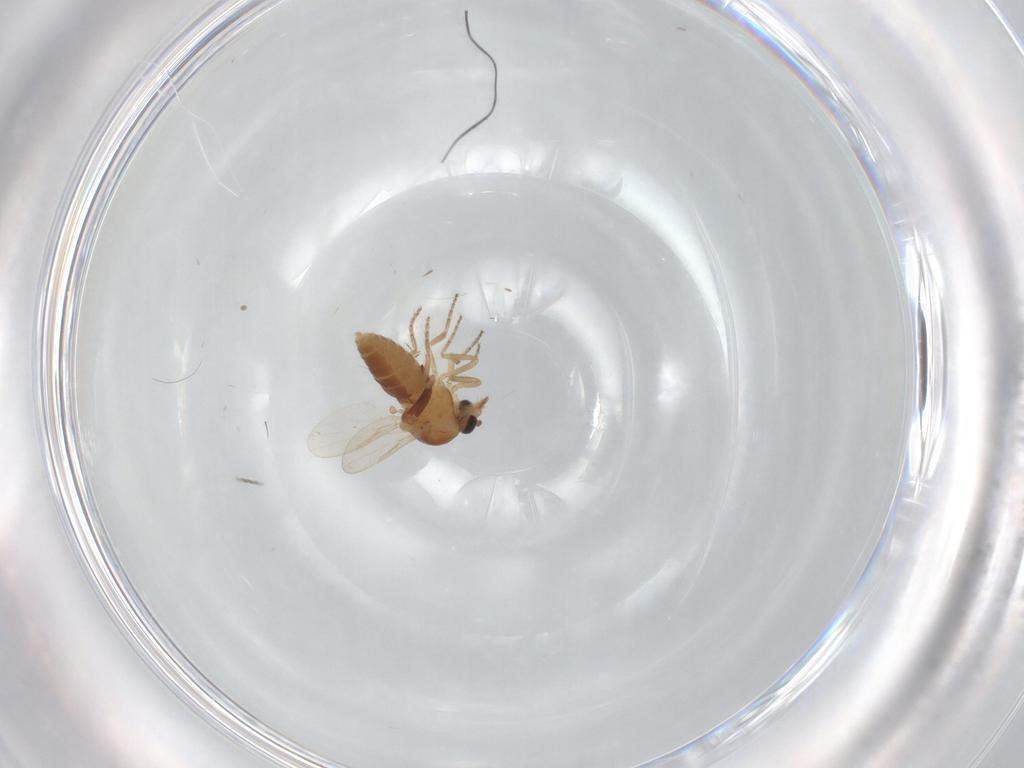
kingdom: Animalia
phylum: Arthropoda
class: Insecta
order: Diptera
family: Ceratopogonidae
